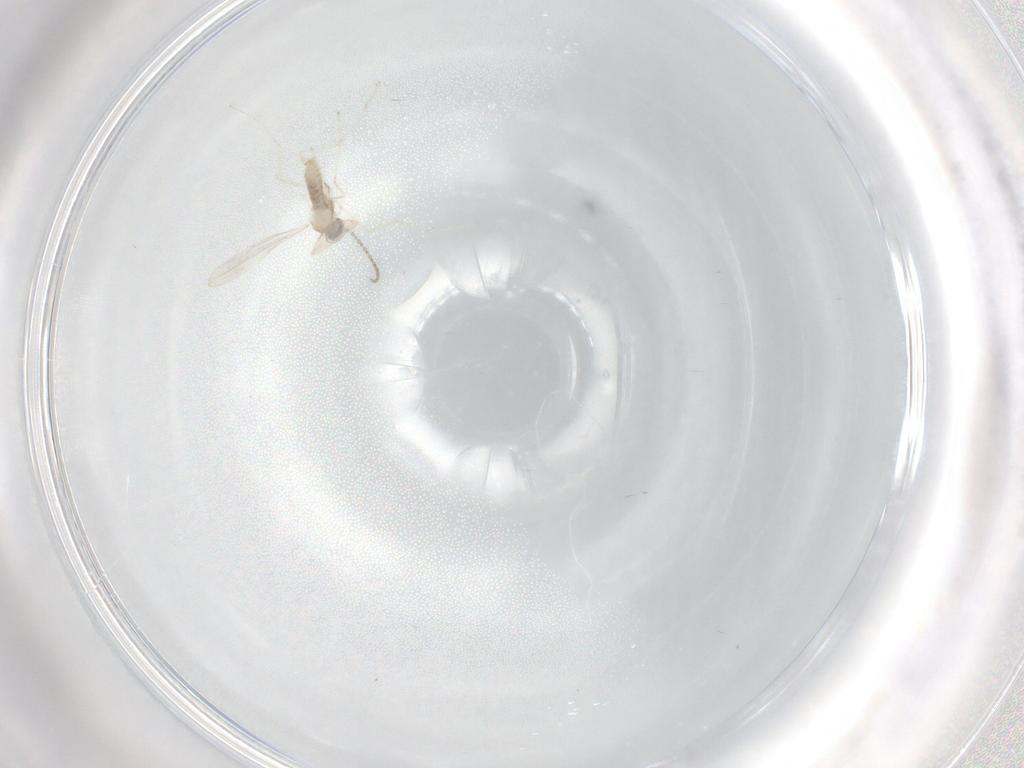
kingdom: Animalia
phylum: Arthropoda
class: Insecta
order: Diptera
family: Cecidomyiidae
